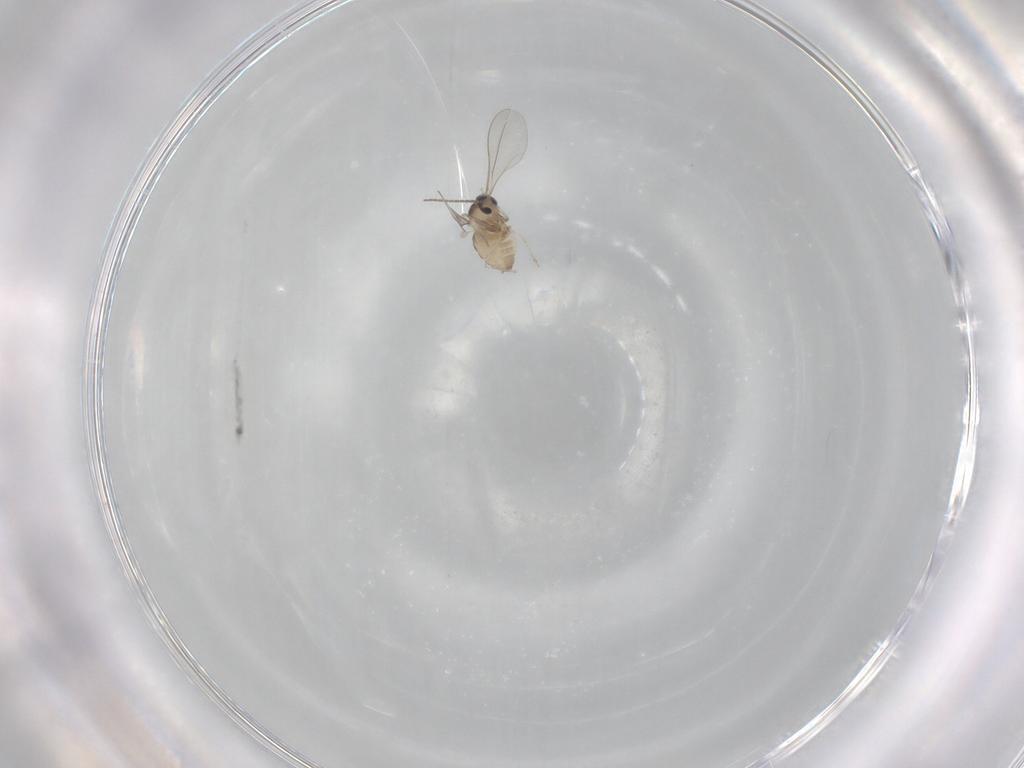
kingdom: Animalia
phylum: Arthropoda
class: Insecta
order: Diptera
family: Cecidomyiidae
